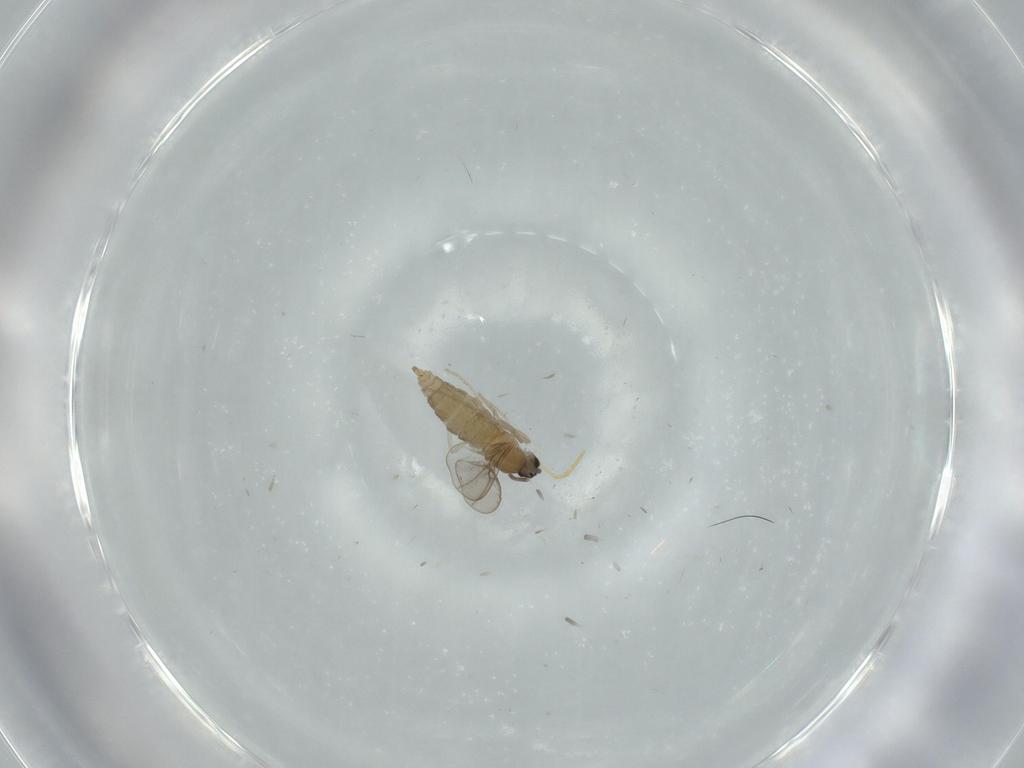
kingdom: Animalia
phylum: Arthropoda
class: Insecta
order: Diptera
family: Cecidomyiidae
